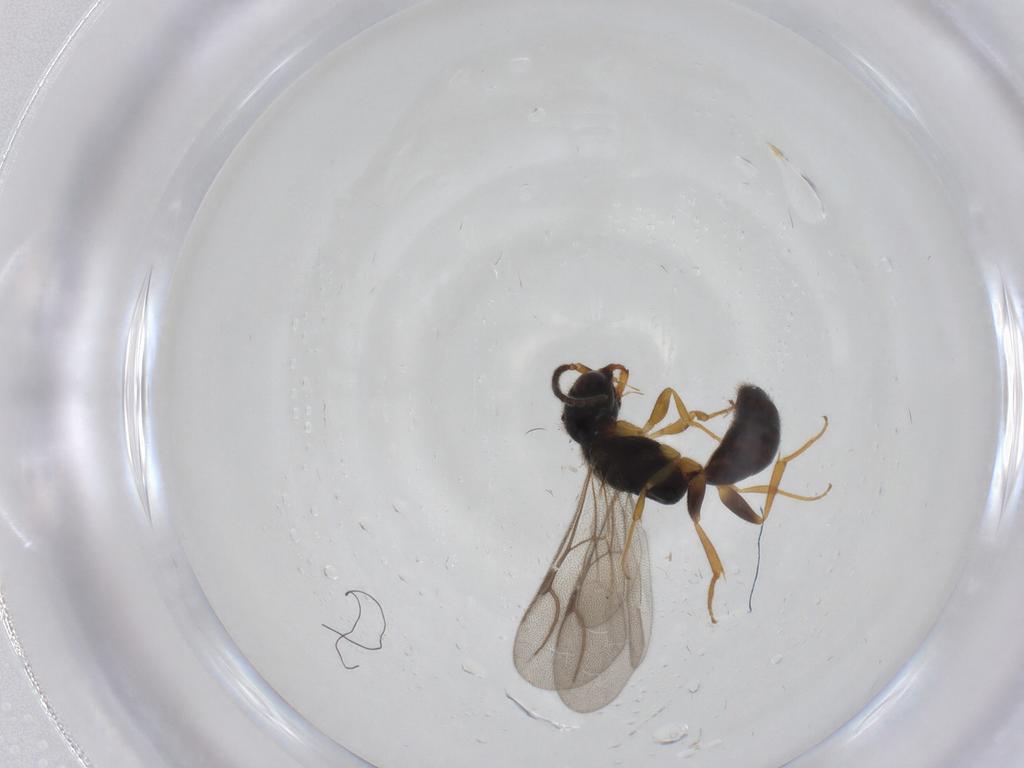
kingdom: Animalia
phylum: Arthropoda
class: Insecta
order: Hymenoptera
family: Bethylidae
